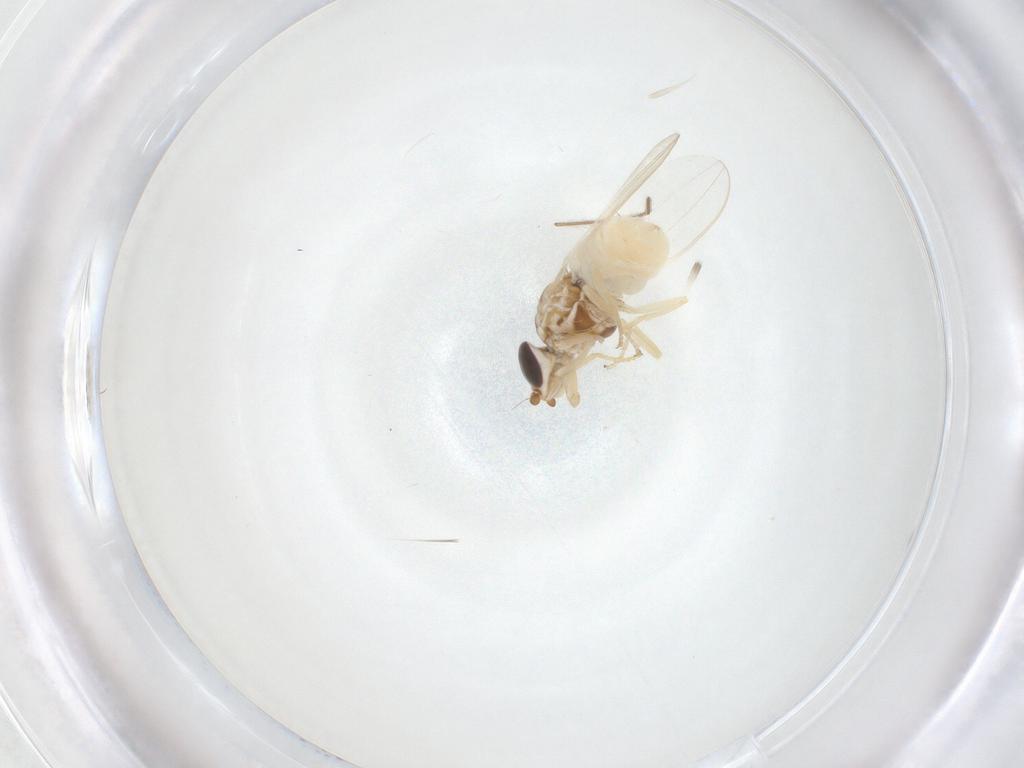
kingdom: Animalia
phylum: Arthropoda
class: Insecta
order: Diptera
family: Chloropidae
